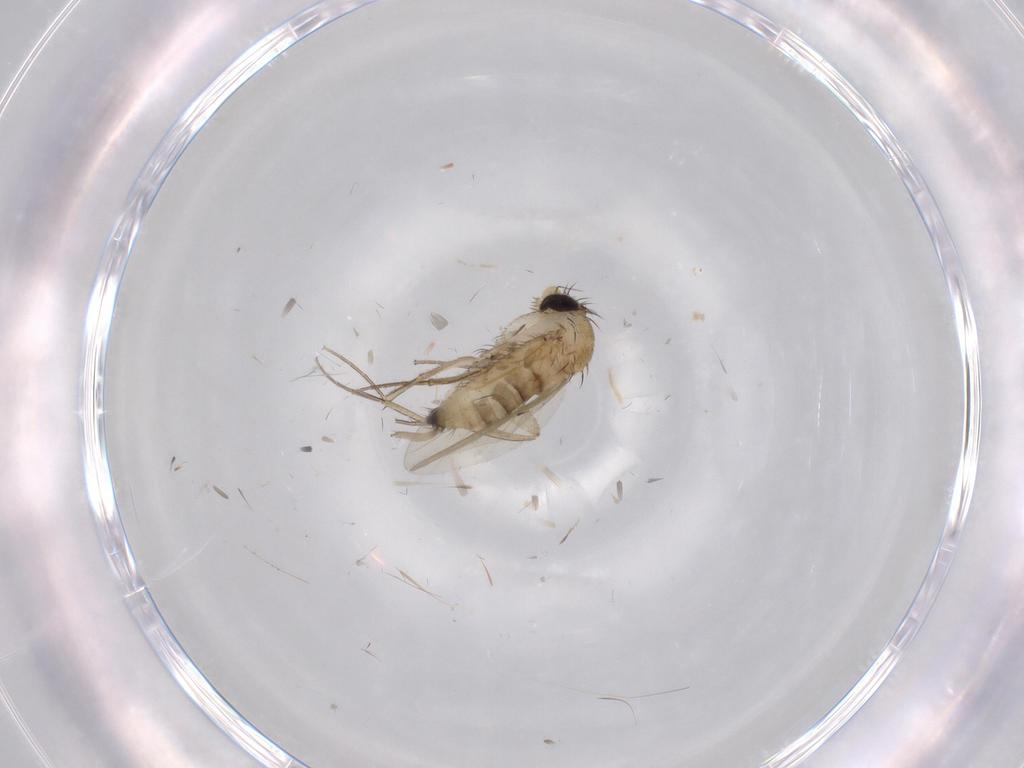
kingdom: Animalia
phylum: Arthropoda
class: Insecta
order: Diptera
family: Phoridae
